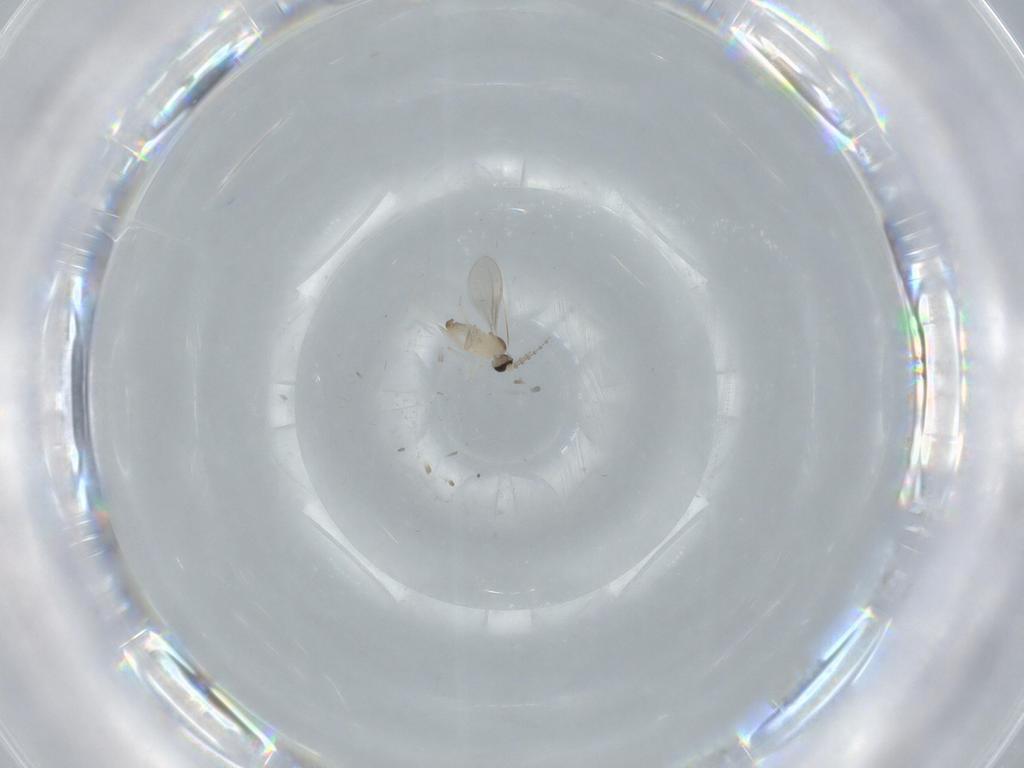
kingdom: Animalia
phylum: Arthropoda
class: Insecta
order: Diptera
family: Cecidomyiidae
